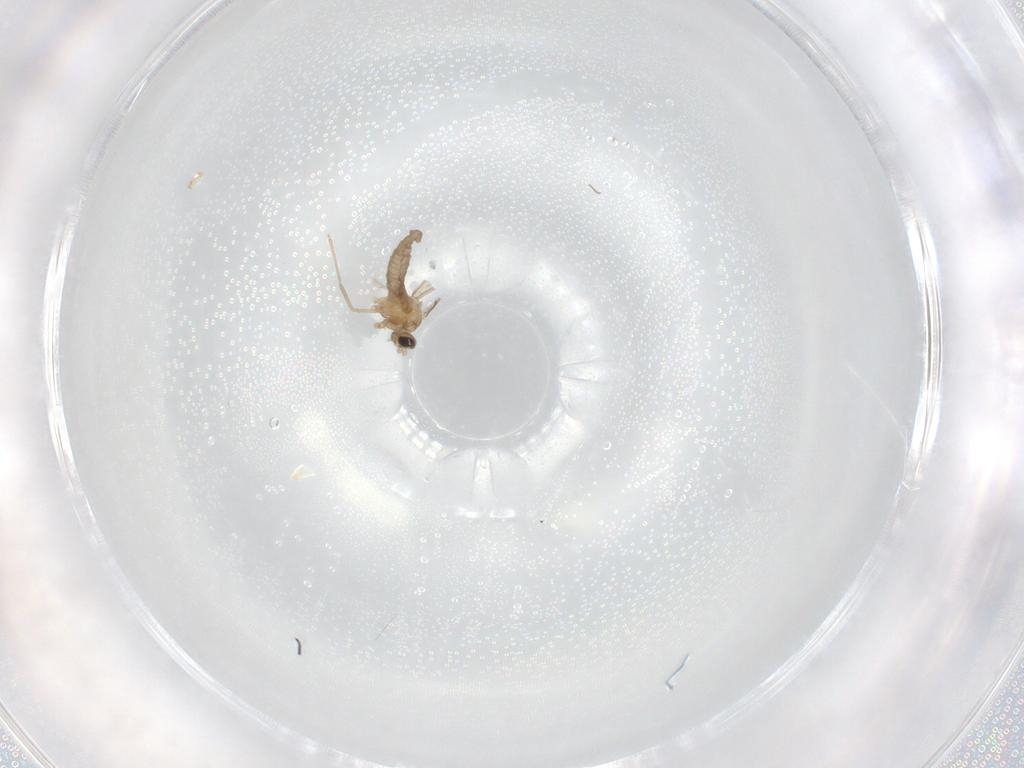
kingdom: Animalia
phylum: Arthropoda
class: Insecta
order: Diptera
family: Cecidomyiidae
